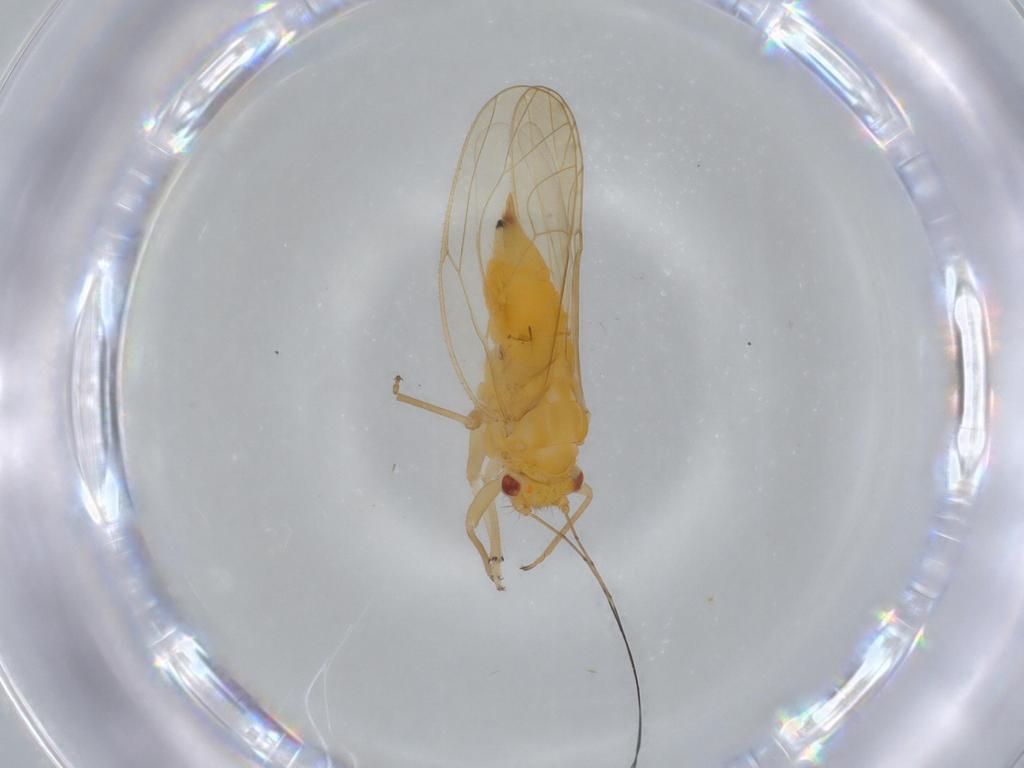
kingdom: Animalia
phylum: Arthropoda
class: Insecta
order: Hemiptera
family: Psyllidae
